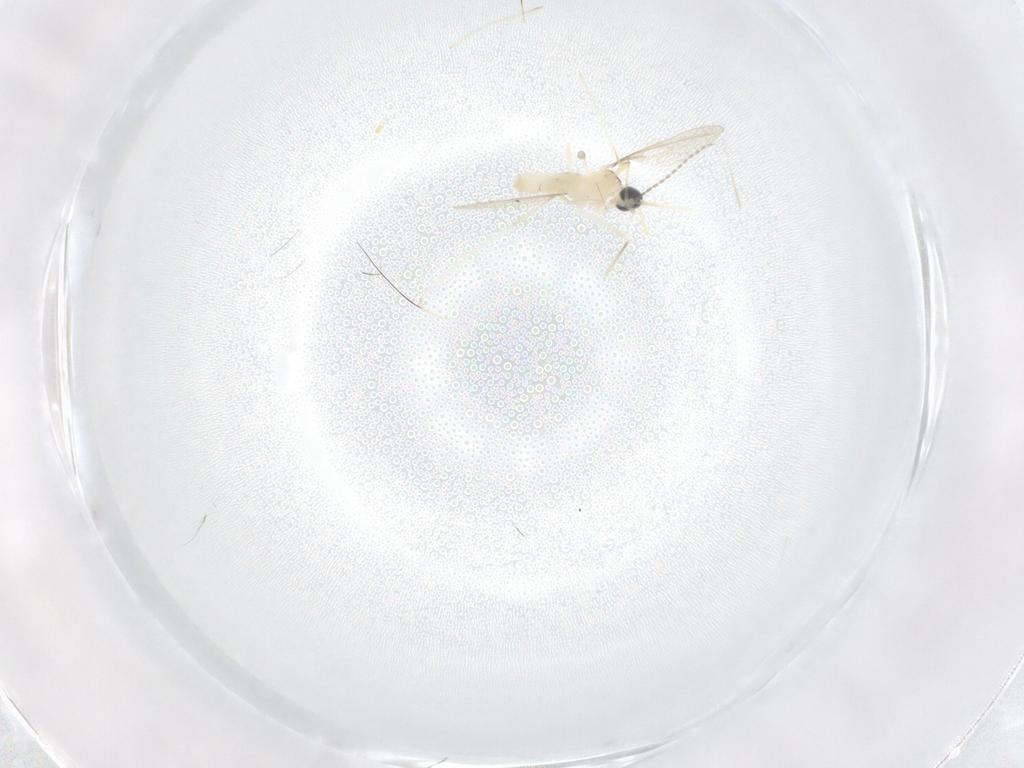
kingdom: Animalia
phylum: Arthropoda
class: Insecta
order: Diptera
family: Cecidomyiidae
